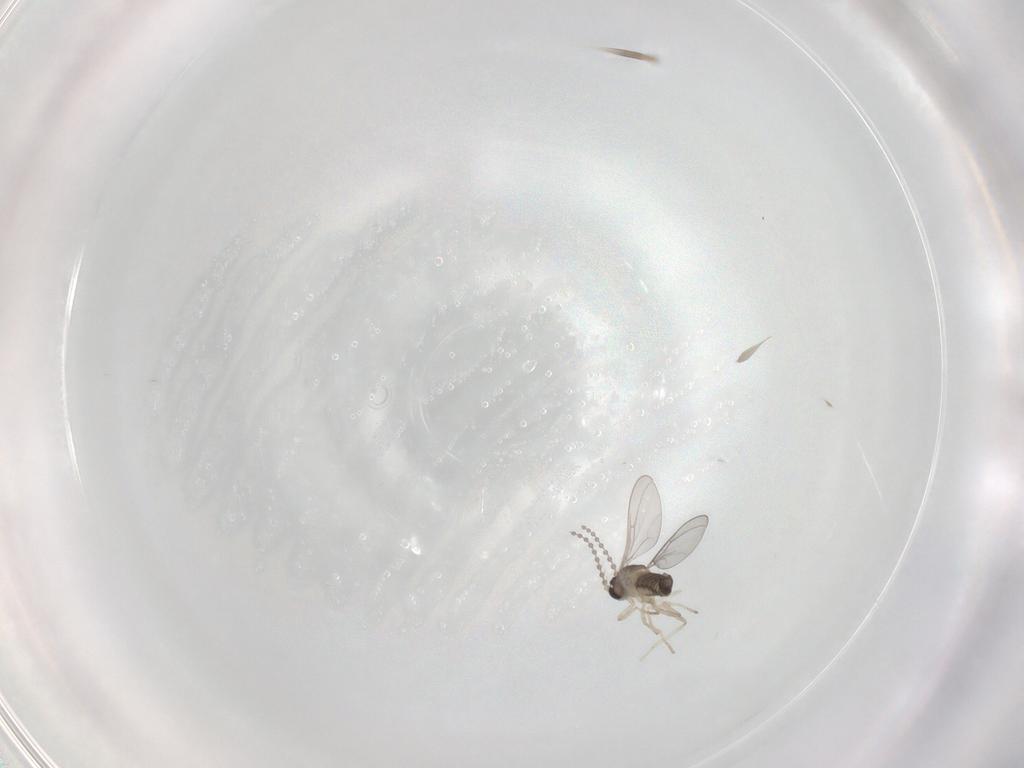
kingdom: Animalia
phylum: Arthropoda
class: Insecta
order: Diptera
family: Cecidomyiidae
